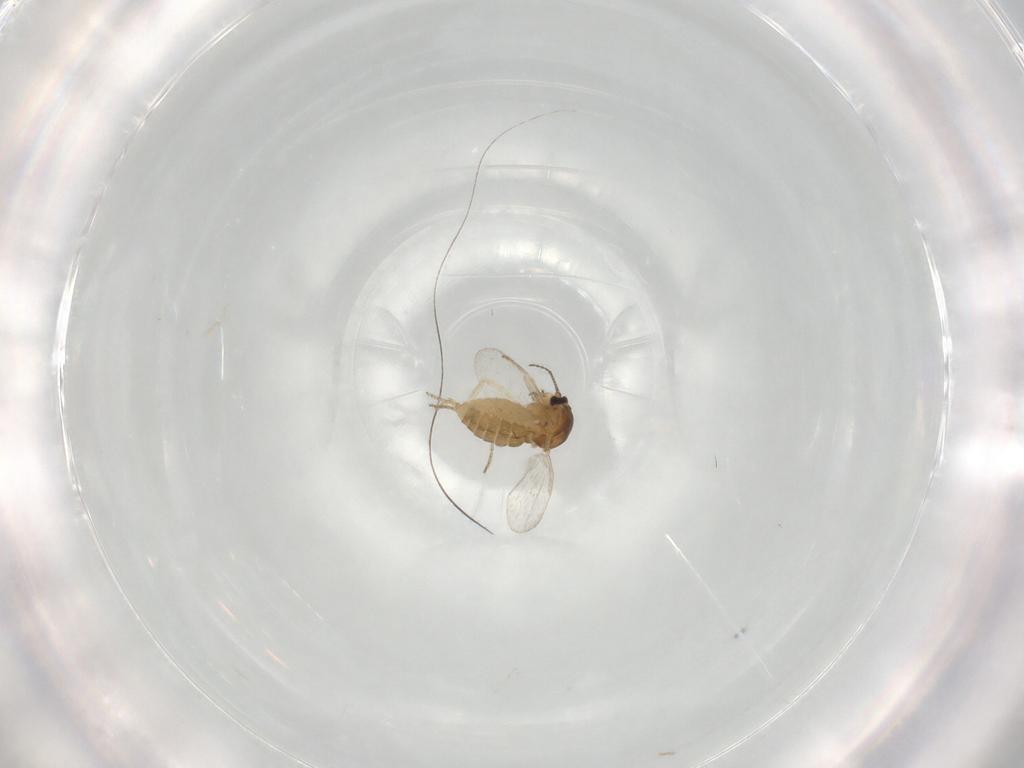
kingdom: Animalia
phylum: Arthropoda
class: Insecta
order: Diptera
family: Ceratopogonidae
